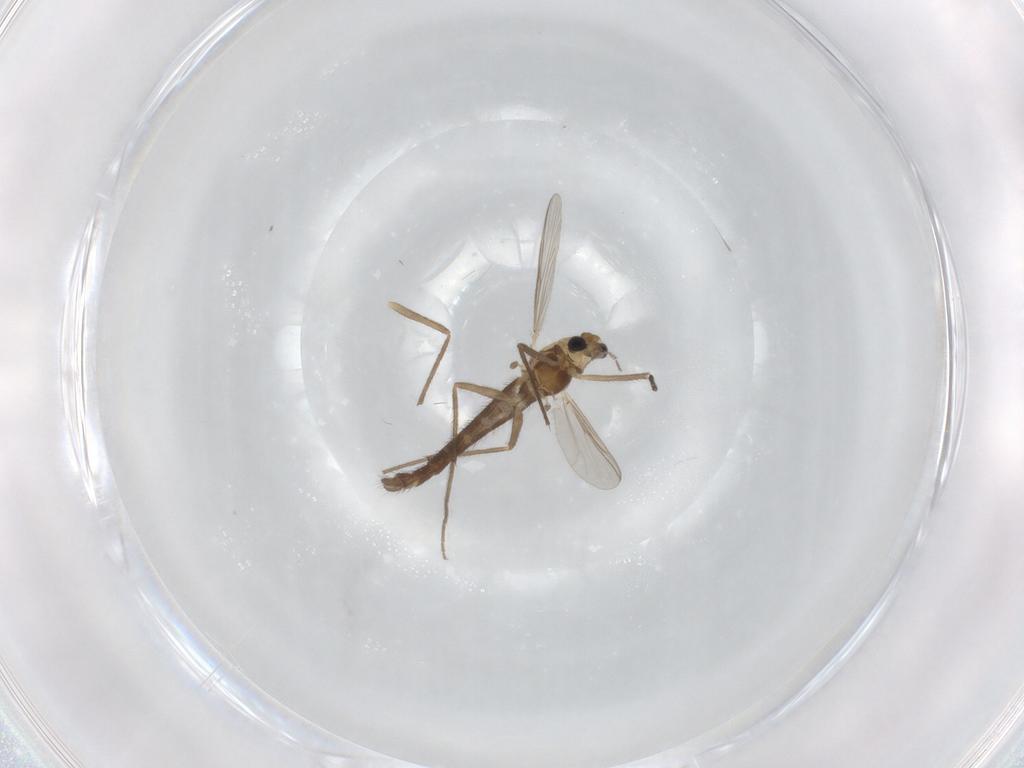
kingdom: Animalia
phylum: Arthropoda
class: Insecta
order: Diptera
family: Chironomidae
